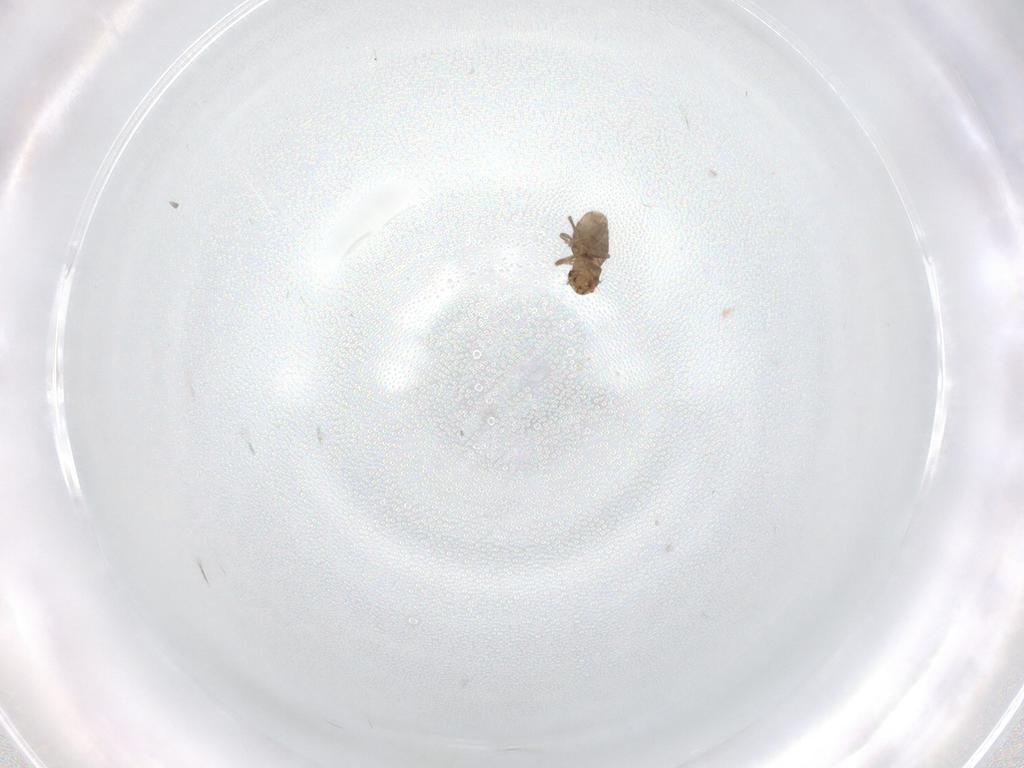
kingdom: Animalia
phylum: Arthropoda
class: Insecta
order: Diptera
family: Limoniidae
